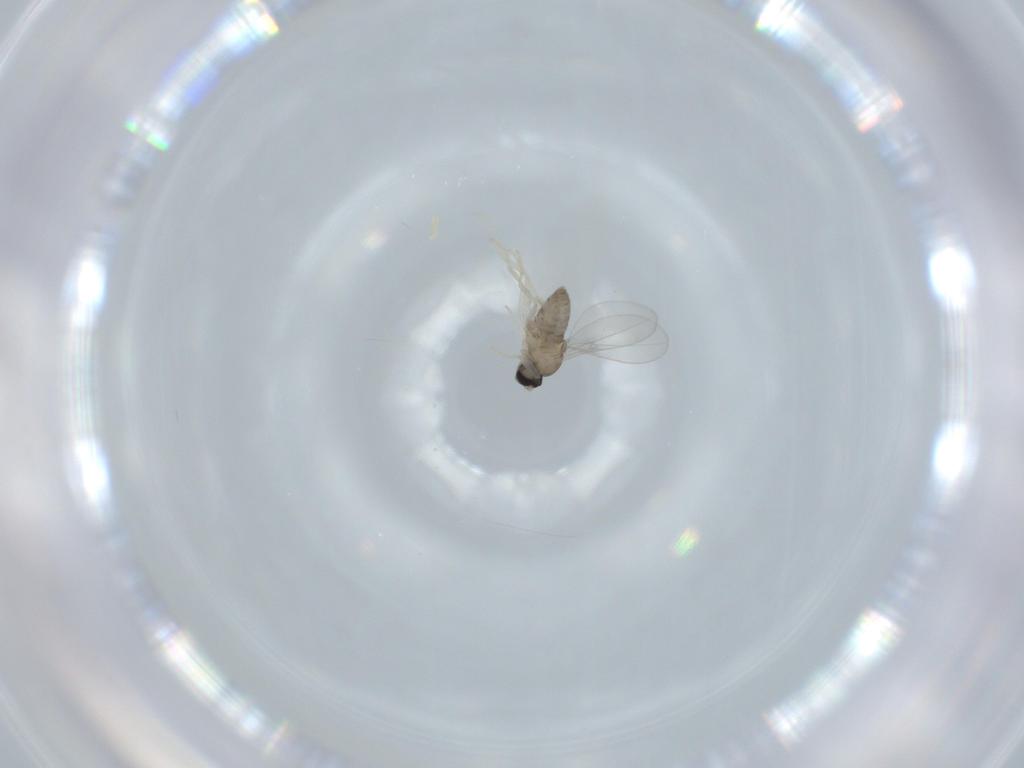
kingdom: Animalia
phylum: Arthropoda
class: Insecta
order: Diptera
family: Cecidomyiidae
